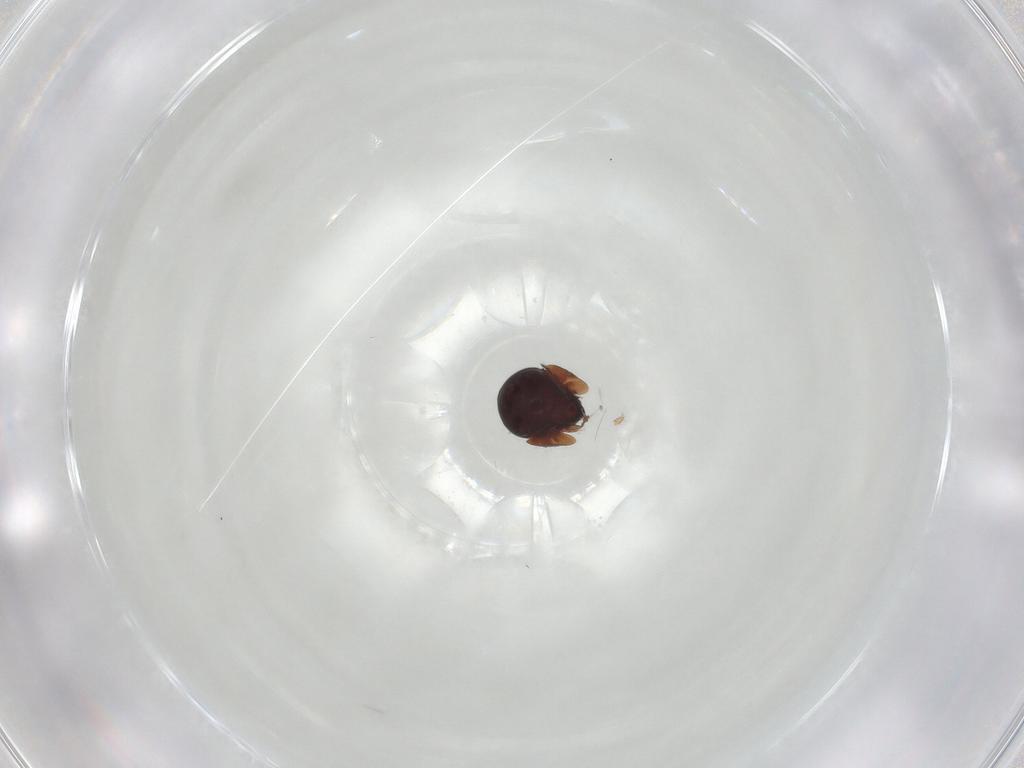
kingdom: Animalia
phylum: Arthropoda
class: Arachnida
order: Sarcoptiformes
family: Galumnidae
